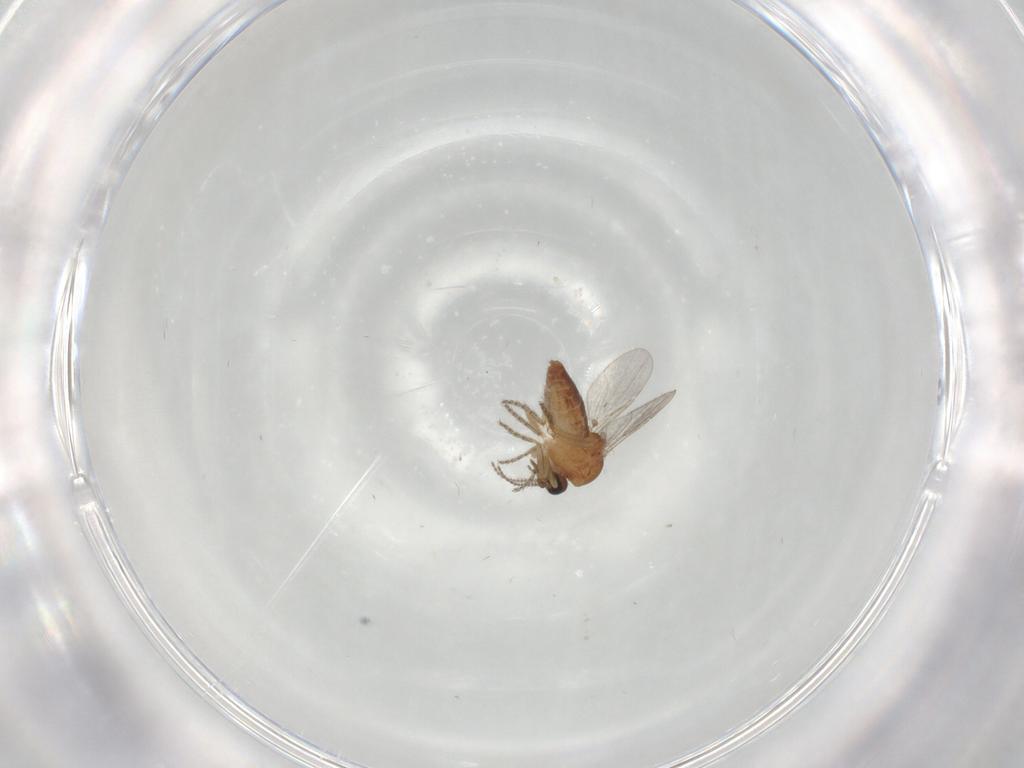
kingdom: Animalia
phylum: Arthropoda
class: Insecta
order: Diptera
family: Ceratopogonidae
